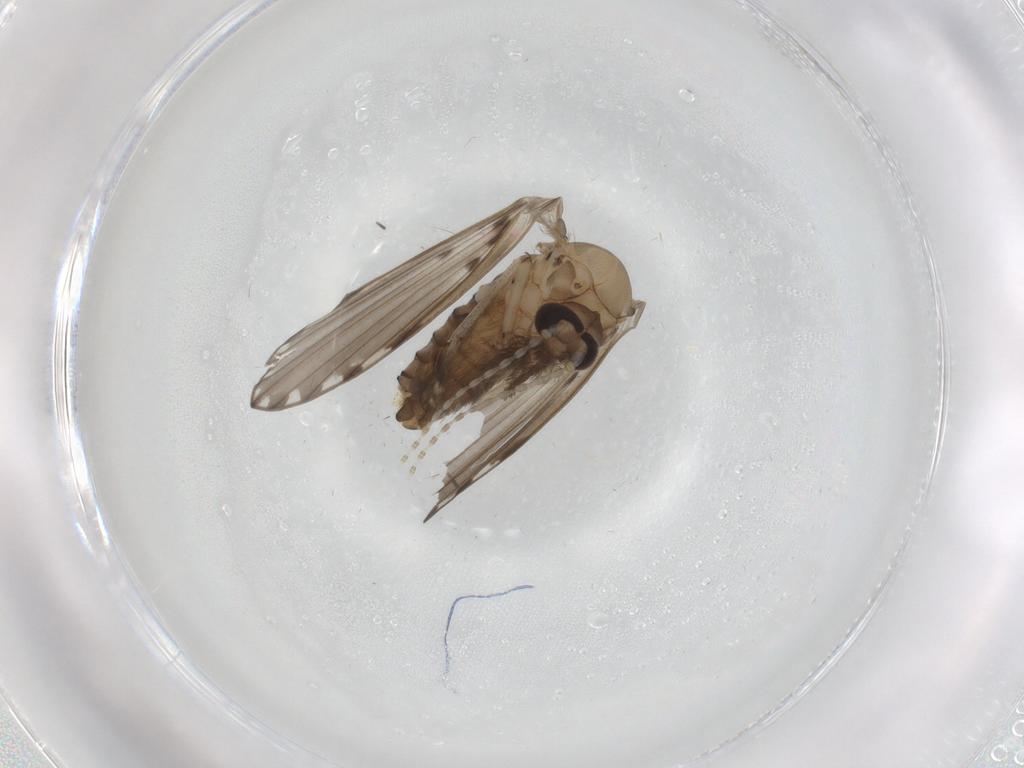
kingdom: Animalia
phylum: Arthropoda
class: Insecta
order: Diptera
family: Psychodidae
